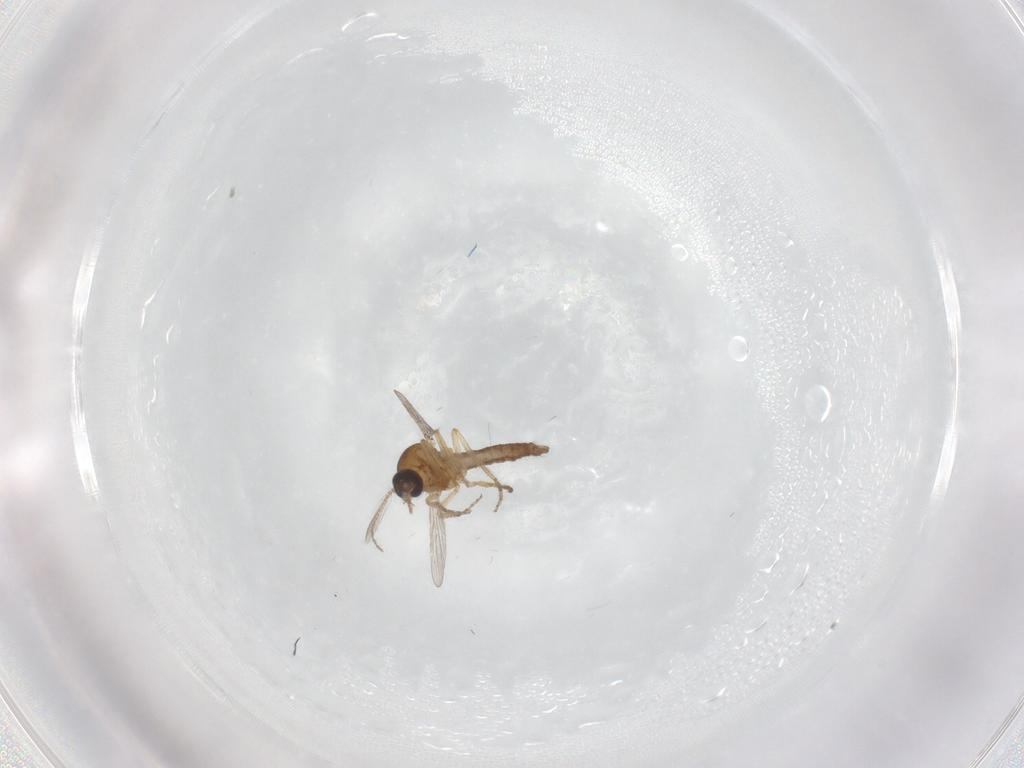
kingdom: Animalia
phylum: Arthropoda
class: Insecta
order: Diptera
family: Ceratopogonidae
